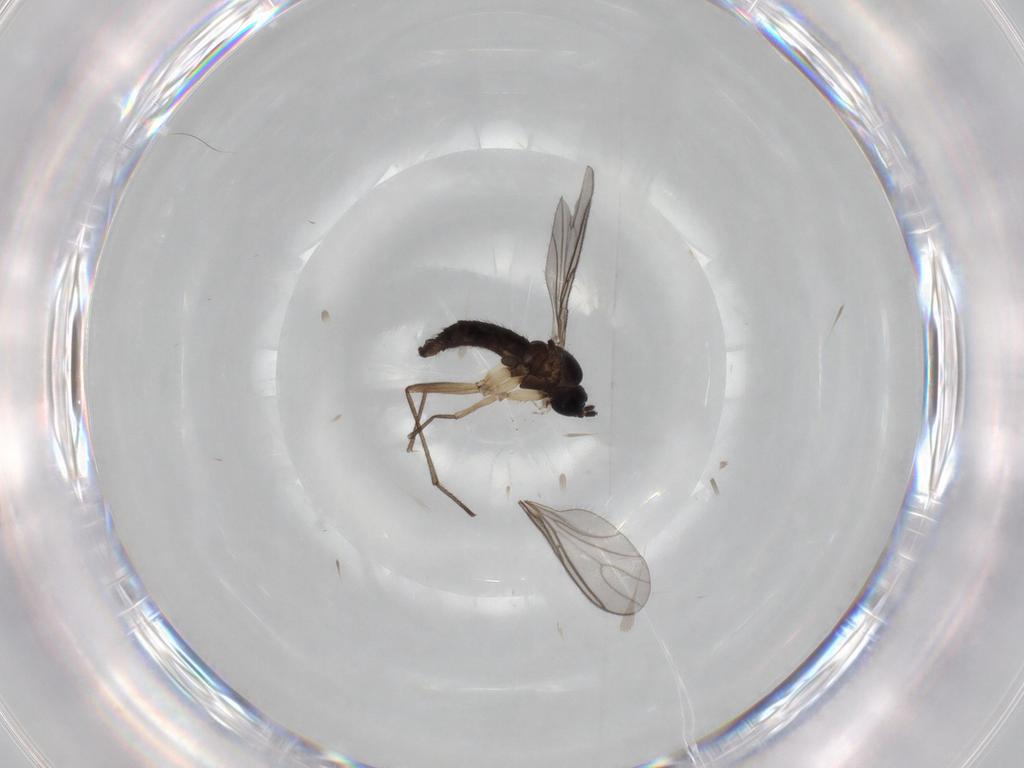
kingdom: Animalia
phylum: Arthropoda
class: Insecta
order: Diptera
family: Sciaridae
